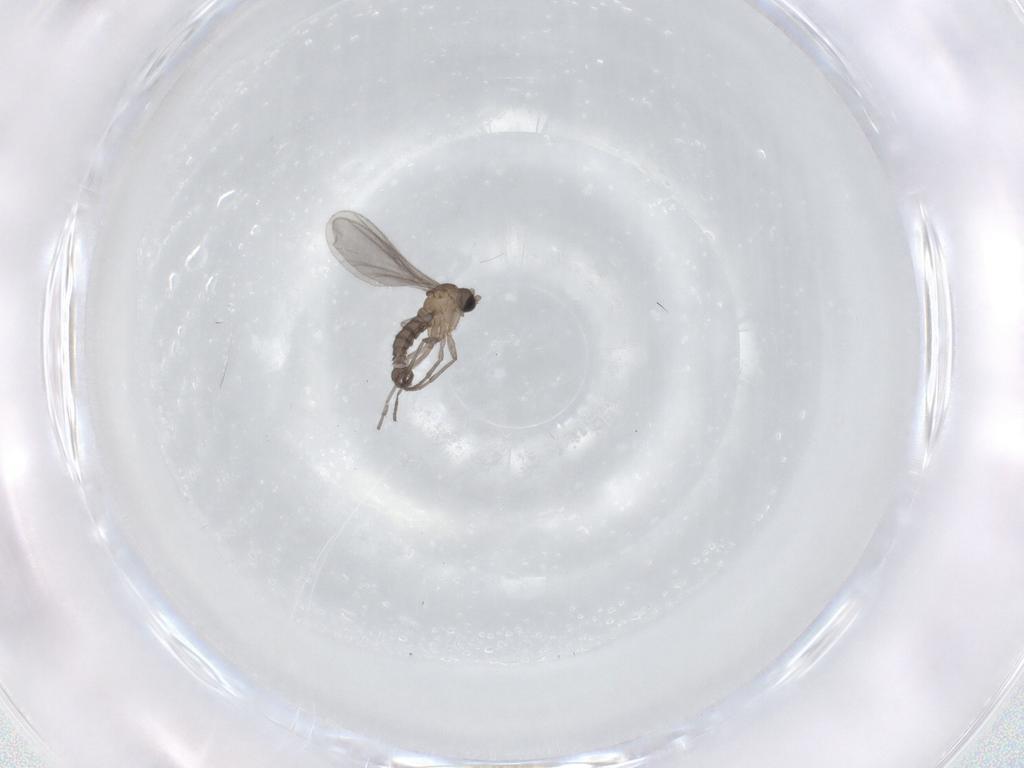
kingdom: Animalia
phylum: Arthropoda
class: Insecta
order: Diptera
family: Sciaridae
